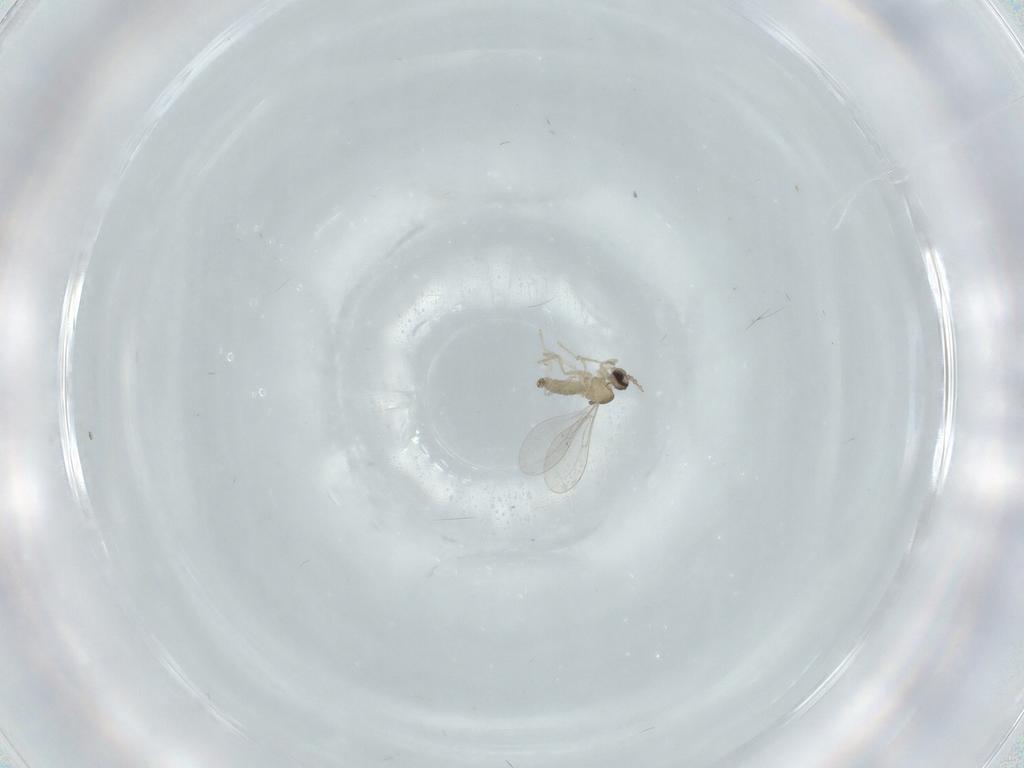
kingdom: Animalia
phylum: Arthropoda
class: Insecta
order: Diptera
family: Cecidomyiidae
